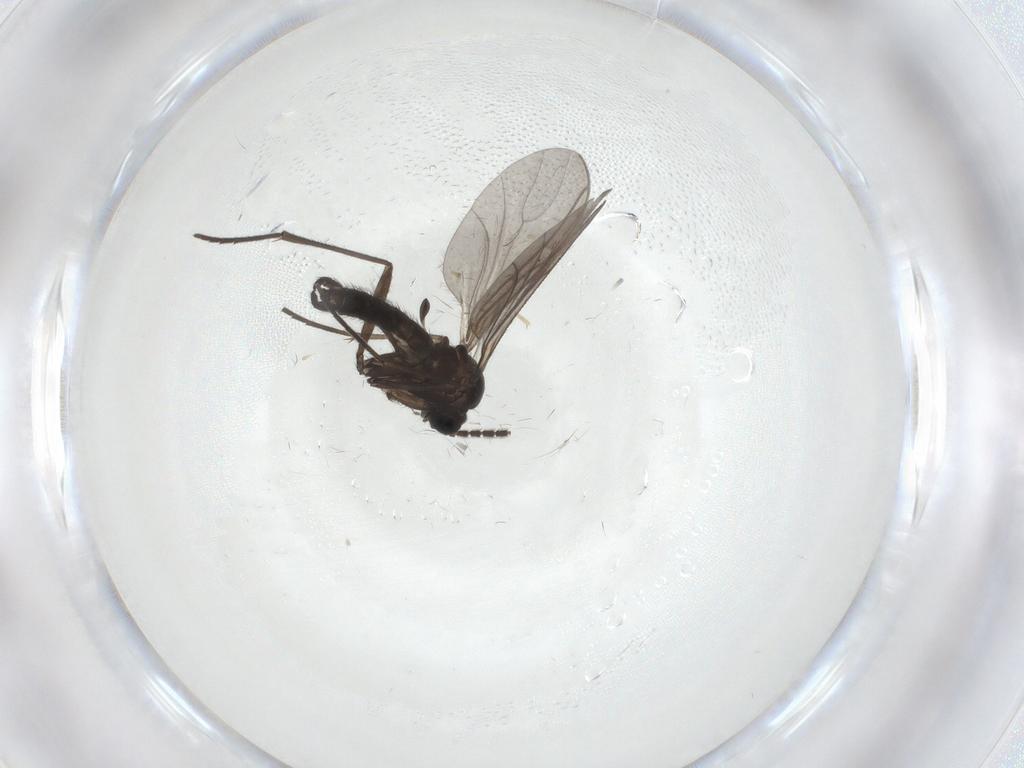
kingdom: Animalia
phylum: Arthropoda
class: Insecta
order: Diptera
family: Sciaridae
